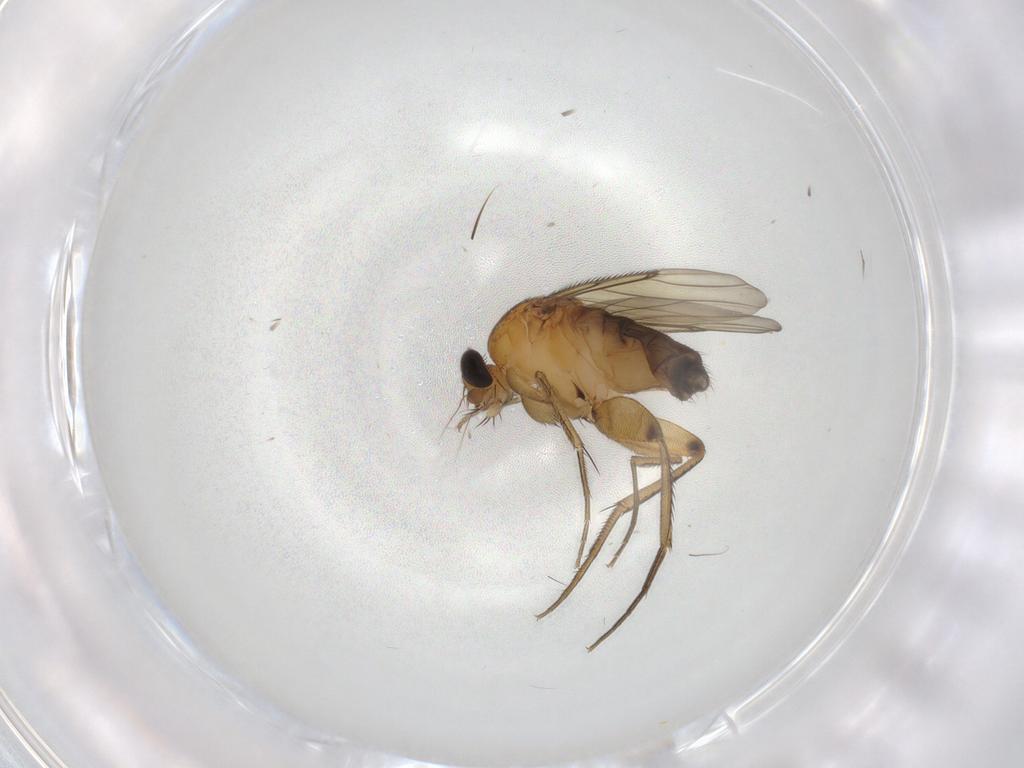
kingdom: Animalia
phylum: Arthropoda
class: Insecta
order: Diptera
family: Phoridae
